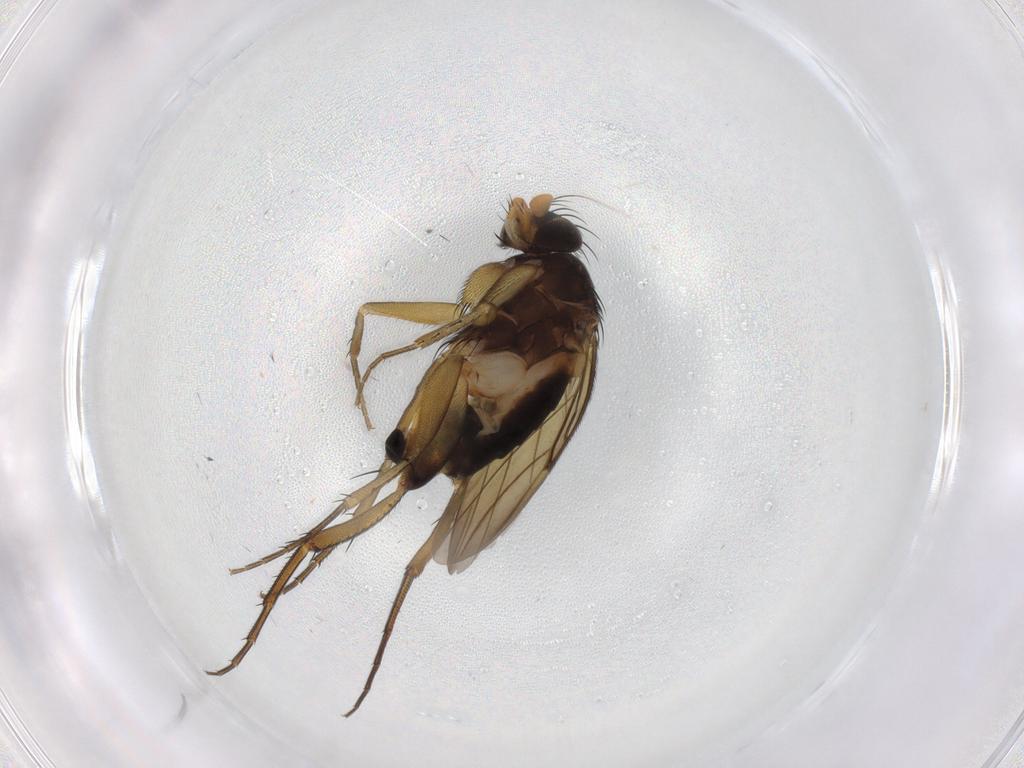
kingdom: Animalia
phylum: Arthropoda
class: Insecta
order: Diptera
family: Phoridae
